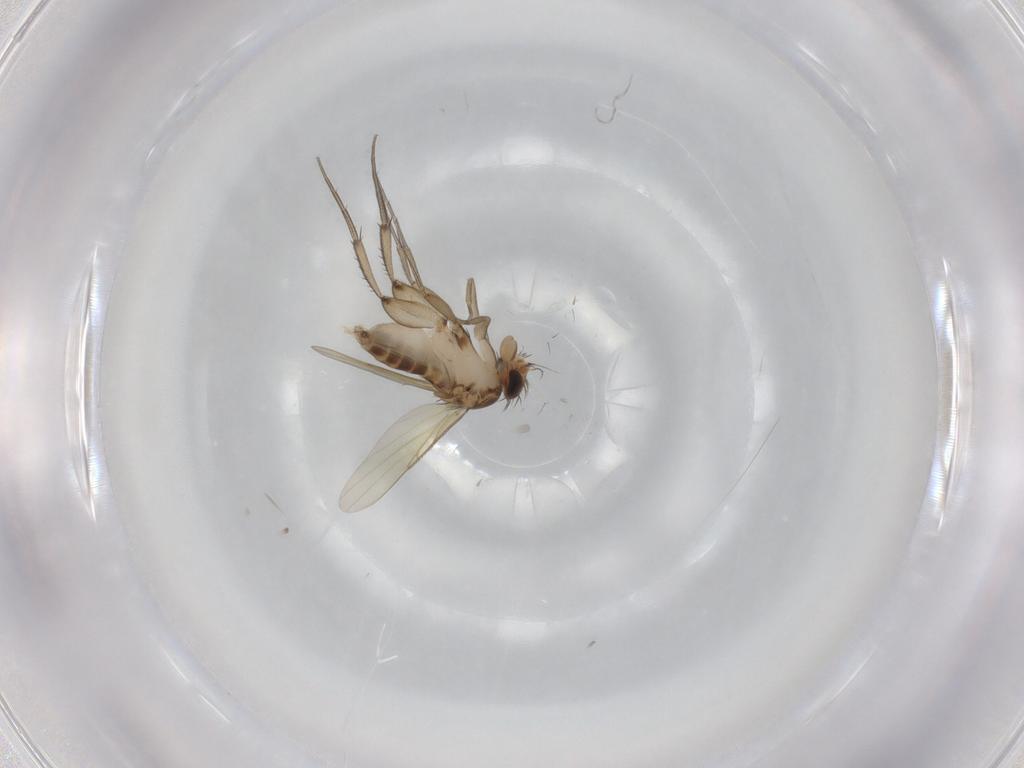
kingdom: Animalia
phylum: Arthropoda
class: Insecta
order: Diptera
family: Phoridae
